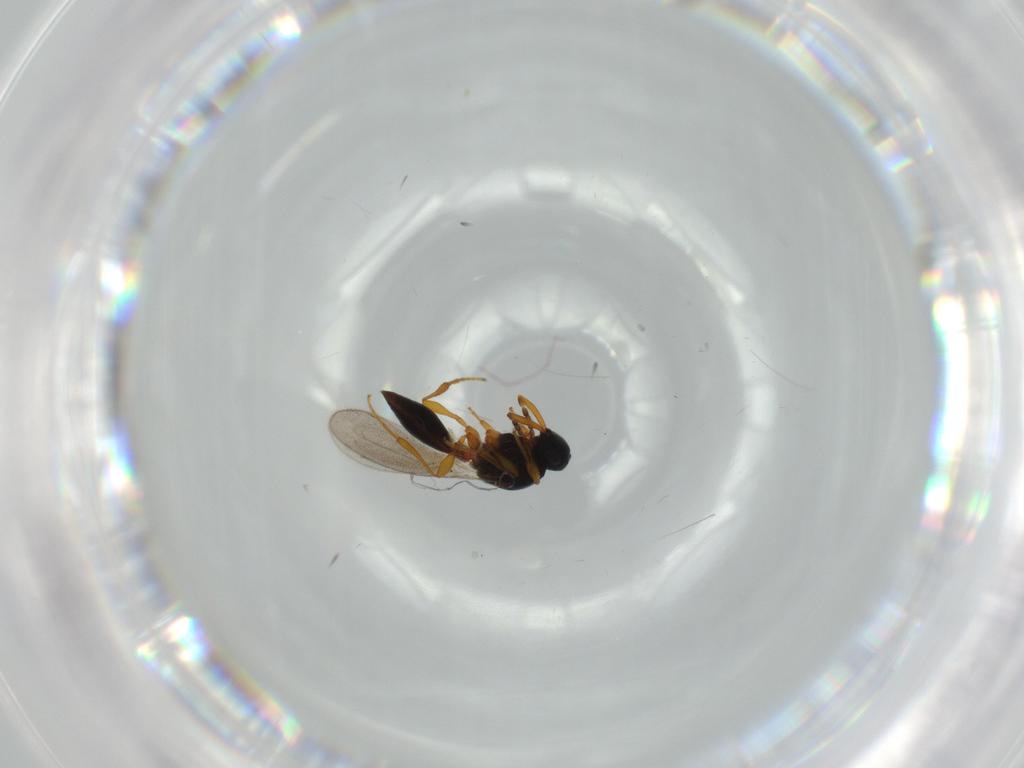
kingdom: Animalia
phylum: Arthropoda
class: Insecta
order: Hymenoptera
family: Platygastridae
